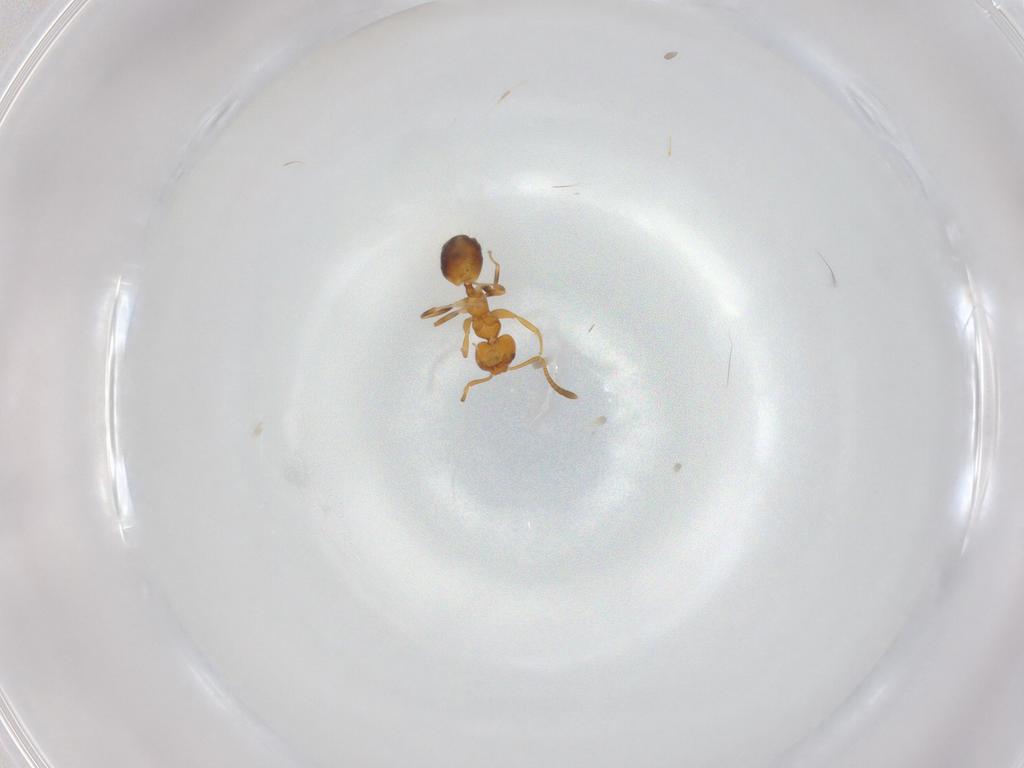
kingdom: Animalia
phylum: Arthropoda
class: Insecta
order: Hymenoptera
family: Formicidae
